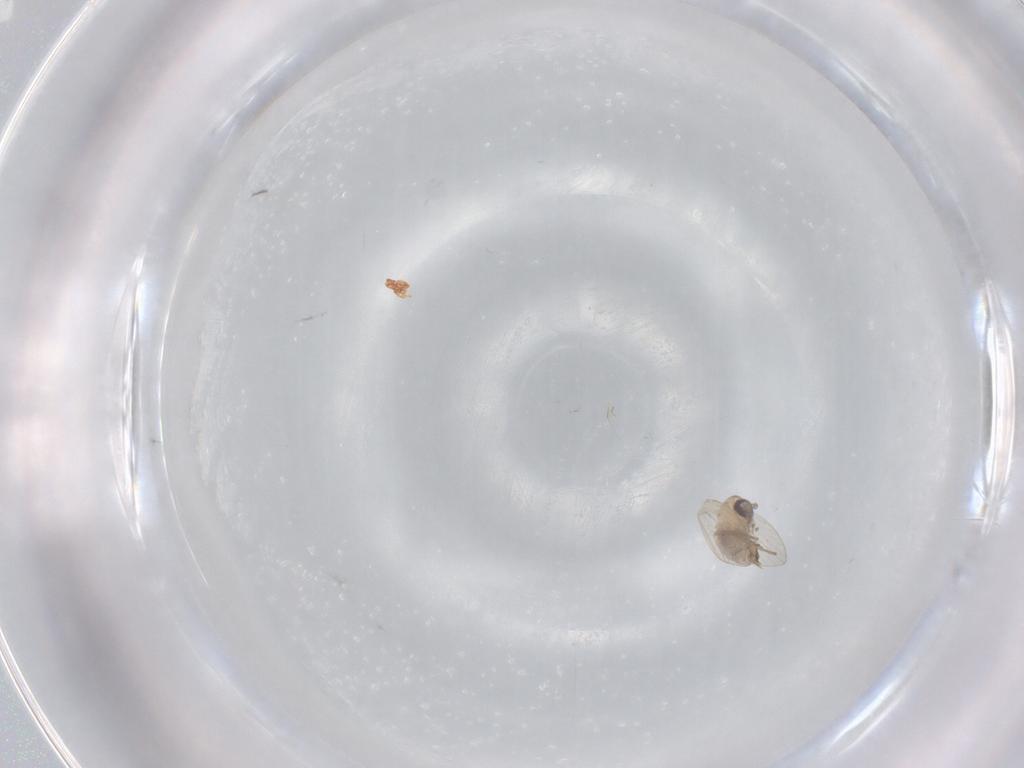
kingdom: Animalia
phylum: Arthropoda
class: Insecta
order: Diptera
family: Psychodidae
